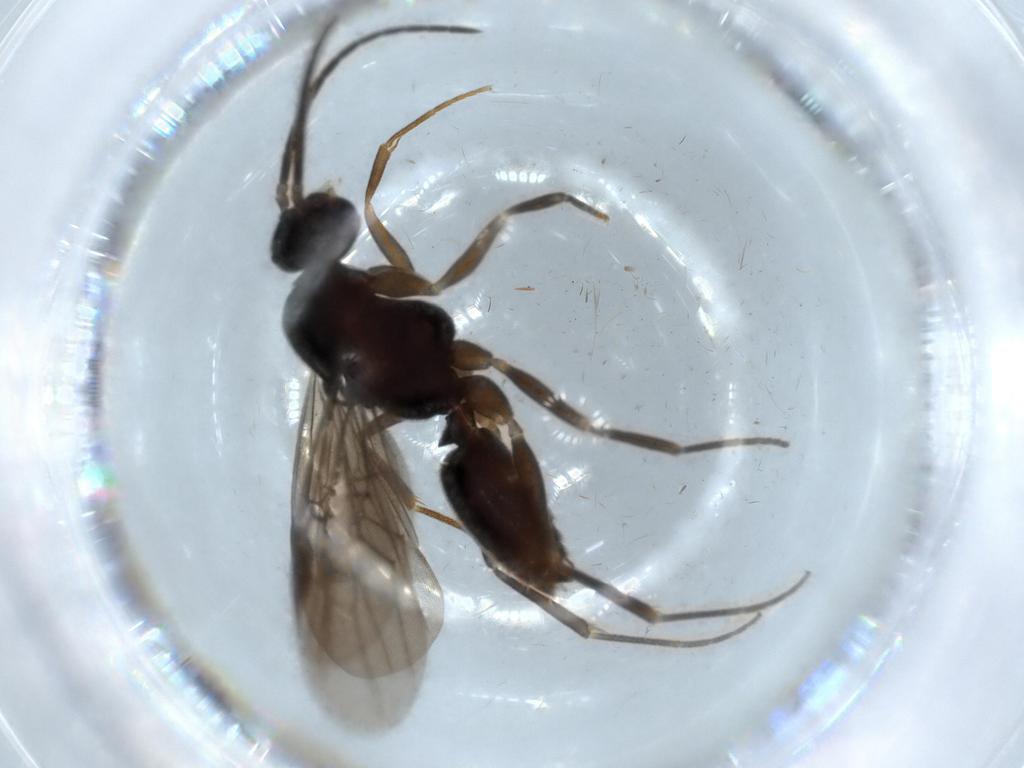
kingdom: Animalia
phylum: Arthropoda
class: Insecta
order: Hymenoptera
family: Formicidae
